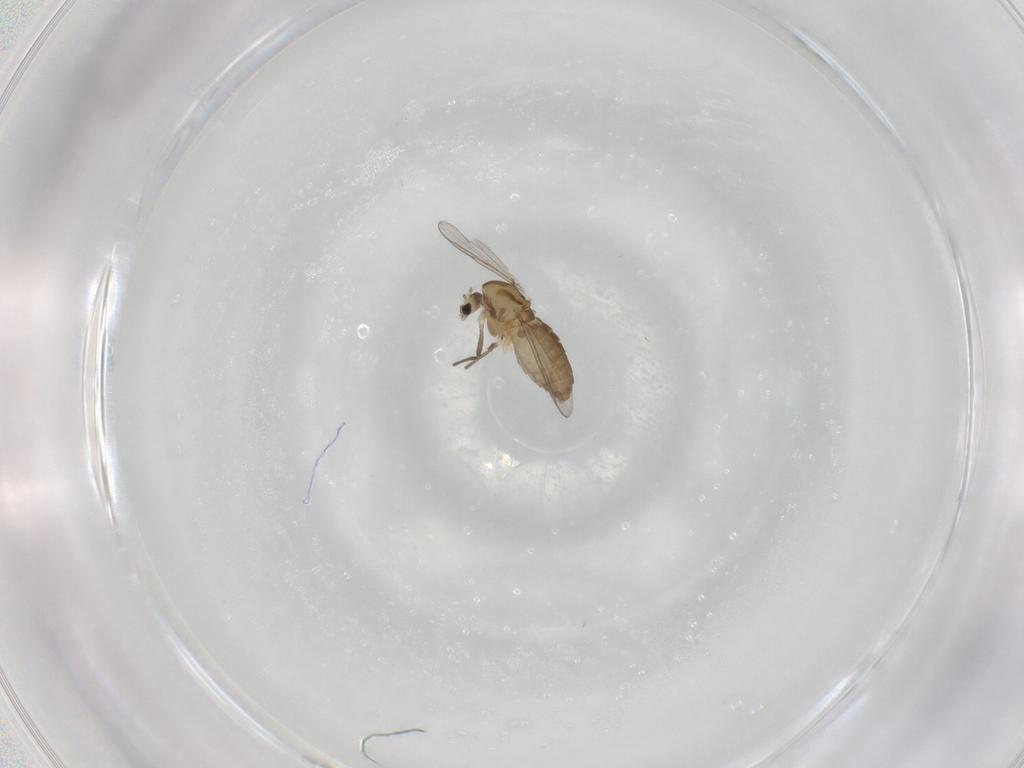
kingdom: Animalia
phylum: Arthropoda
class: Insecta
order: Diptera
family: Chironomidae
